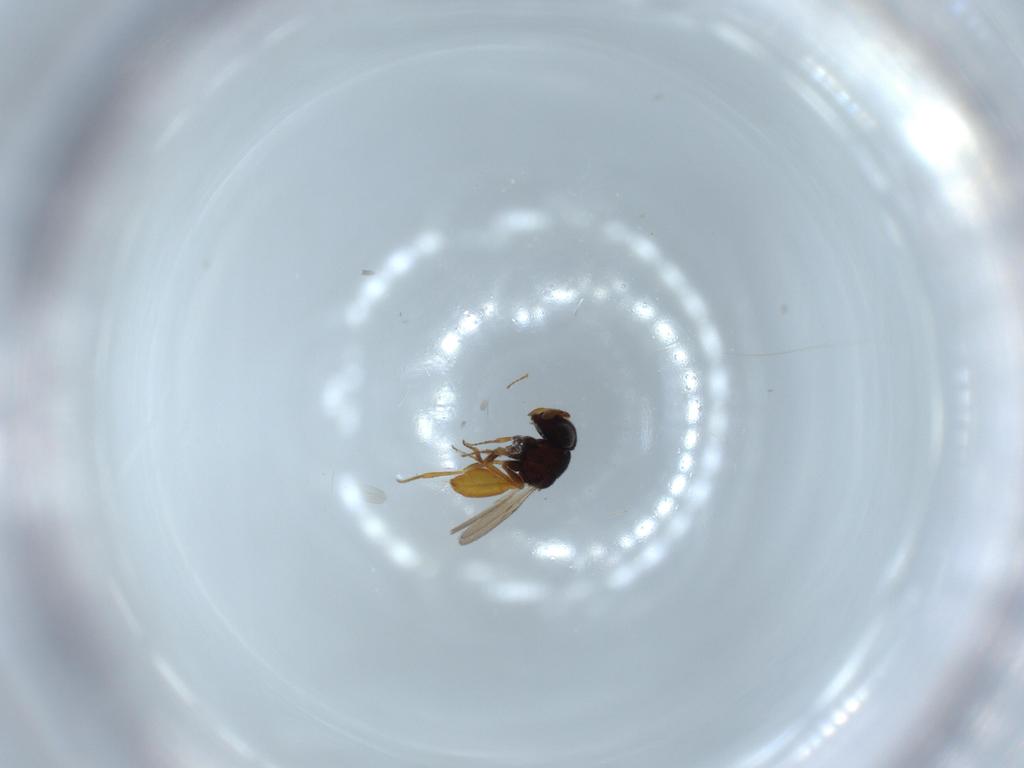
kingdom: Animalia
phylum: Arthropoda
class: Insecta
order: Hymenoptera
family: Scelionidae
